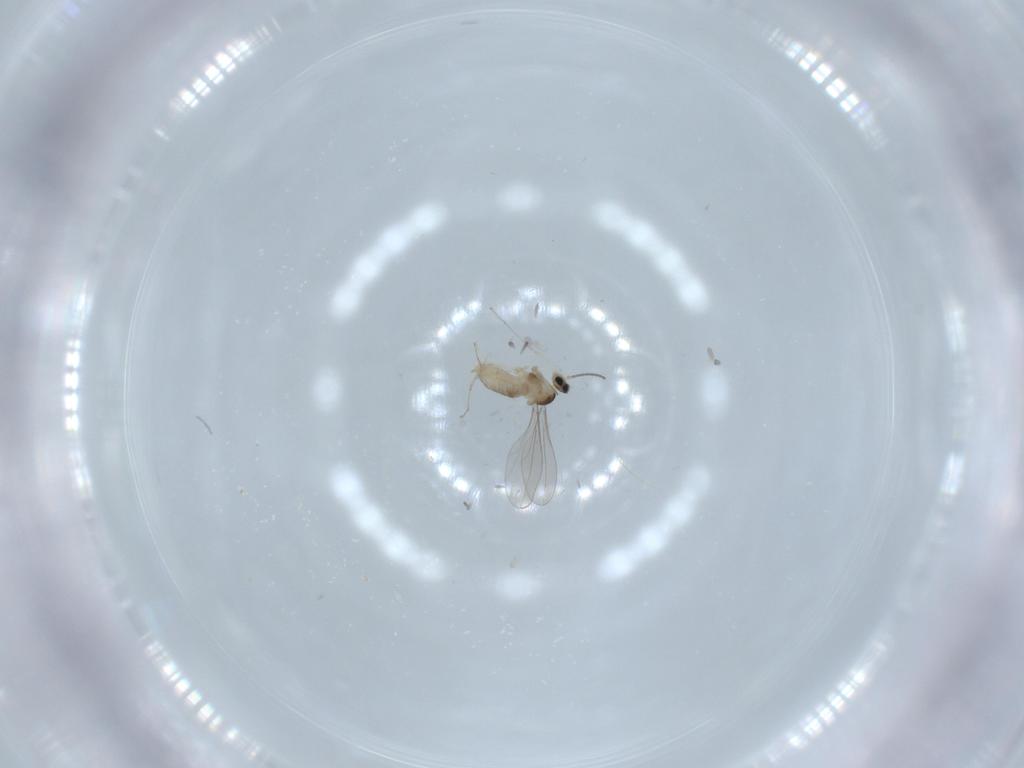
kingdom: Animalia
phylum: Arthropoda
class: Insecta
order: Diptera
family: Cecidomyiidae
